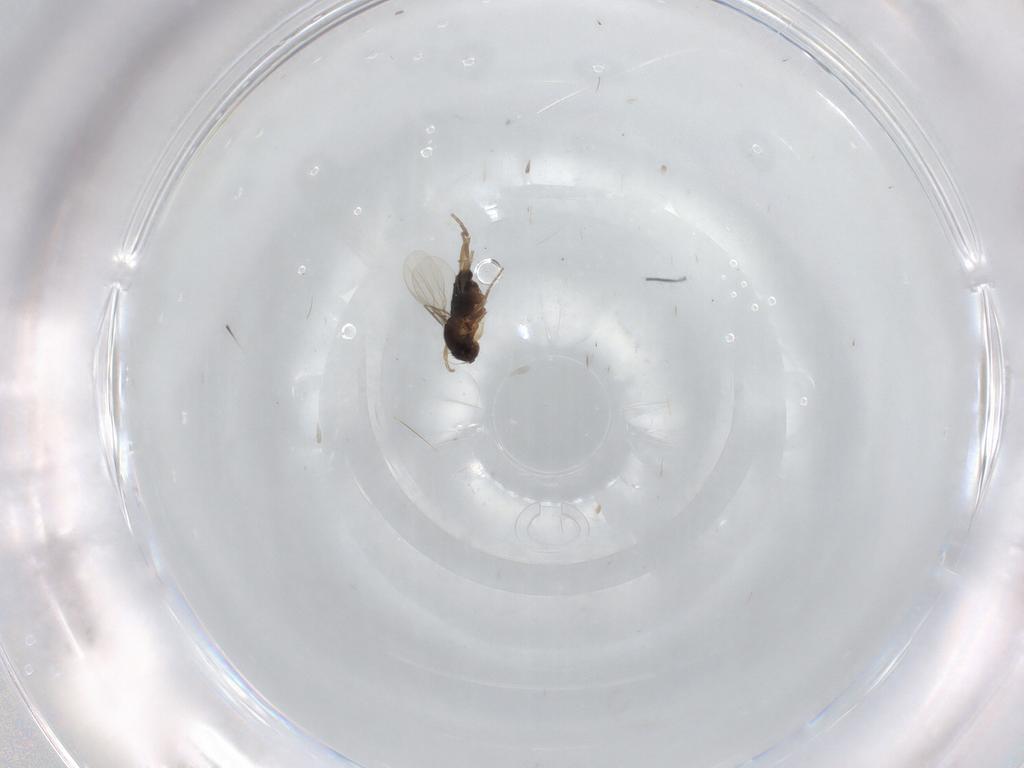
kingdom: Animalia
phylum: Arthropoda
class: Insecta
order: Diptera
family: Phoridae
